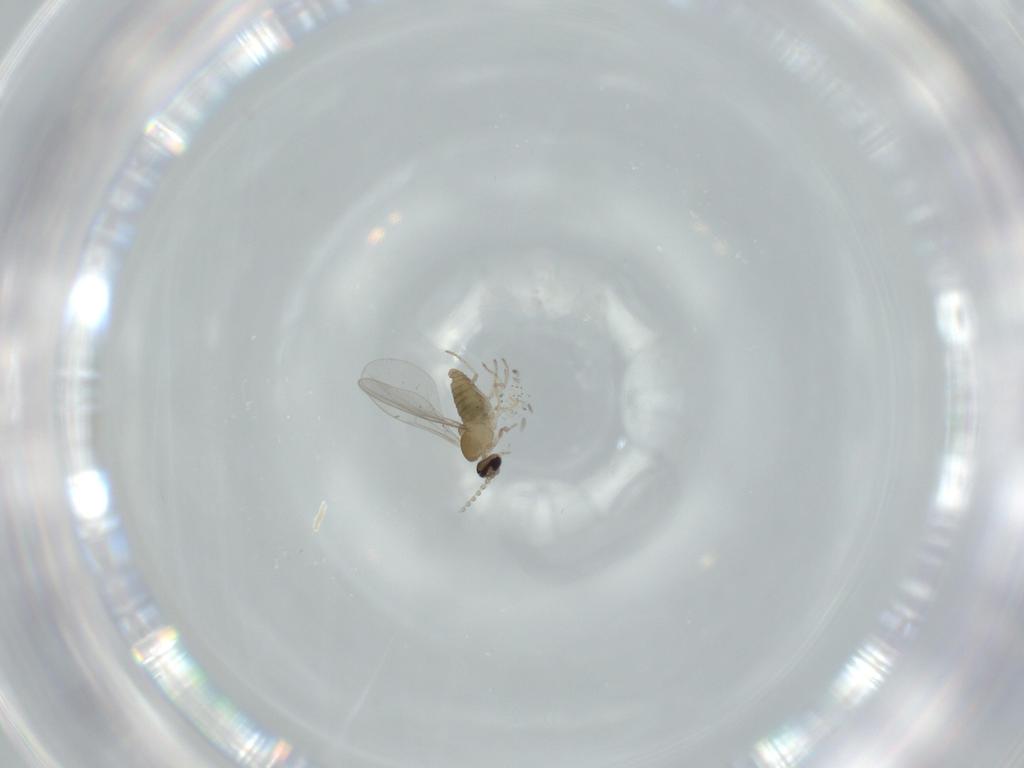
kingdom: Animalia
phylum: Arthropoda
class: Insecta
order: Diptera
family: Cecidomyiidae
